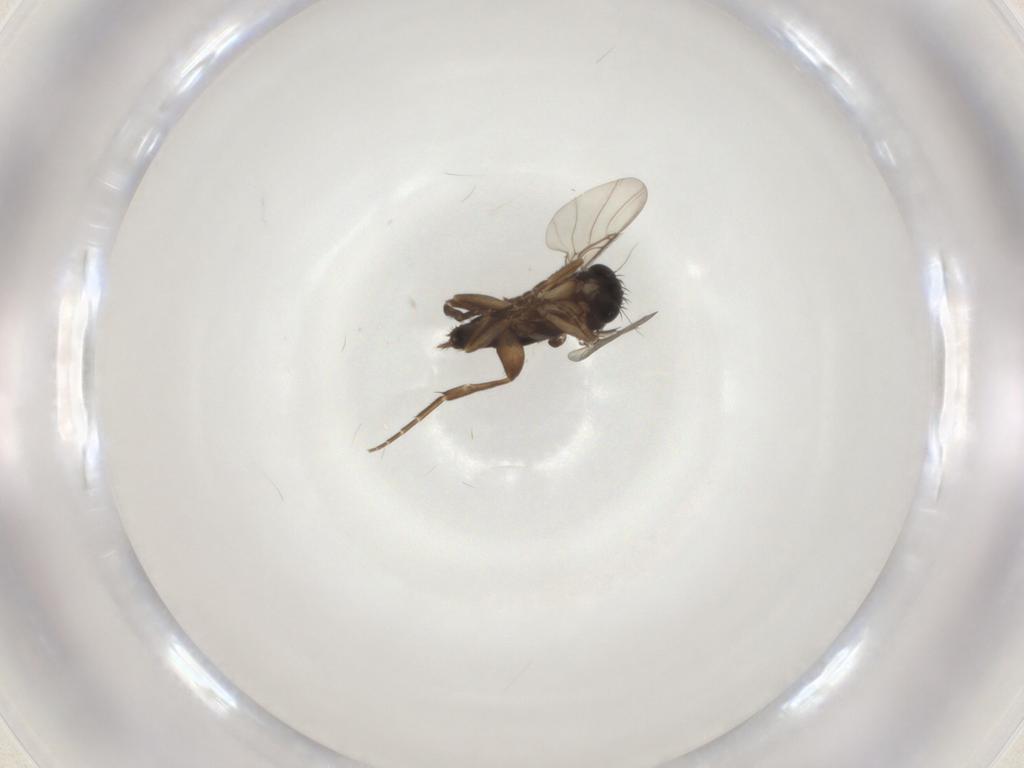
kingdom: Animalia
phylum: Arthropoda
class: Insecta
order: Diptera
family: Phoridae
